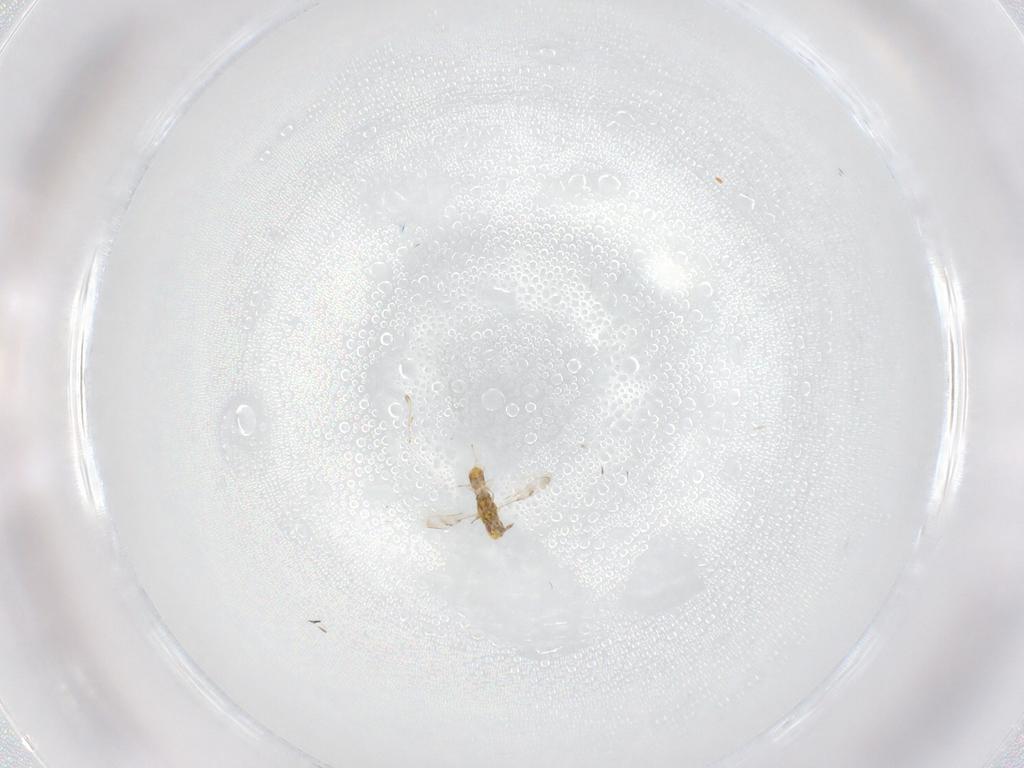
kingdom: Animalia
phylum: Arthropoda
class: Insecta
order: Hymenoptera
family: Eulophidae
